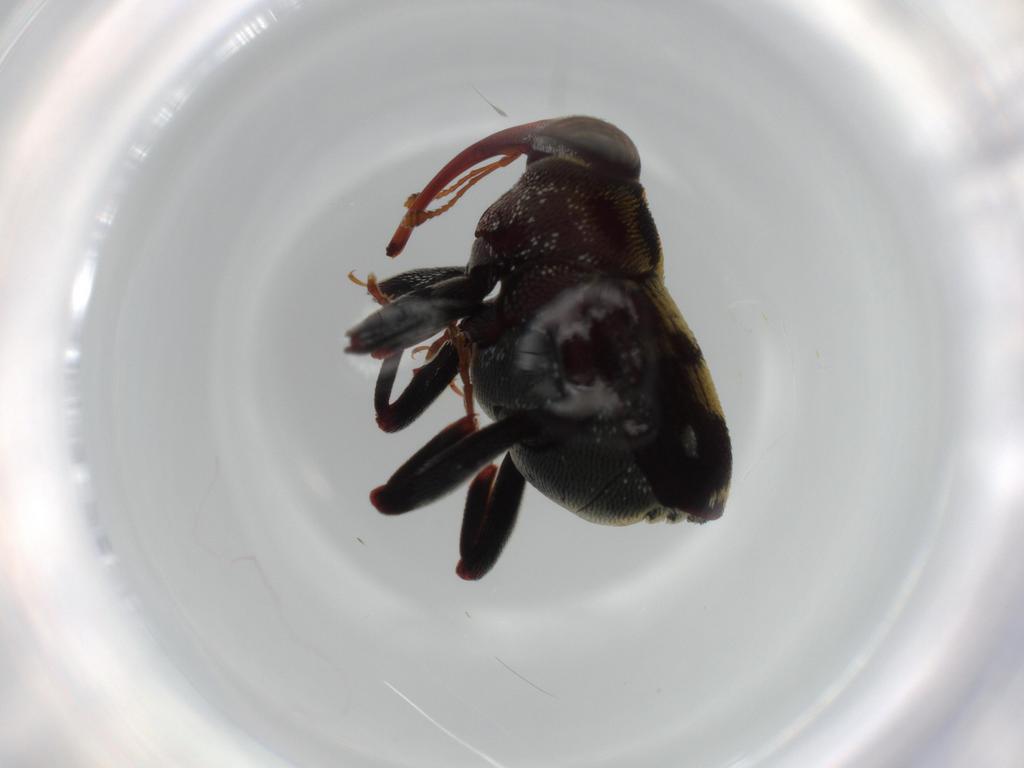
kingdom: Animalia
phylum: Arthropoda
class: Insecta
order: Coleoptera
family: Curculionidae
